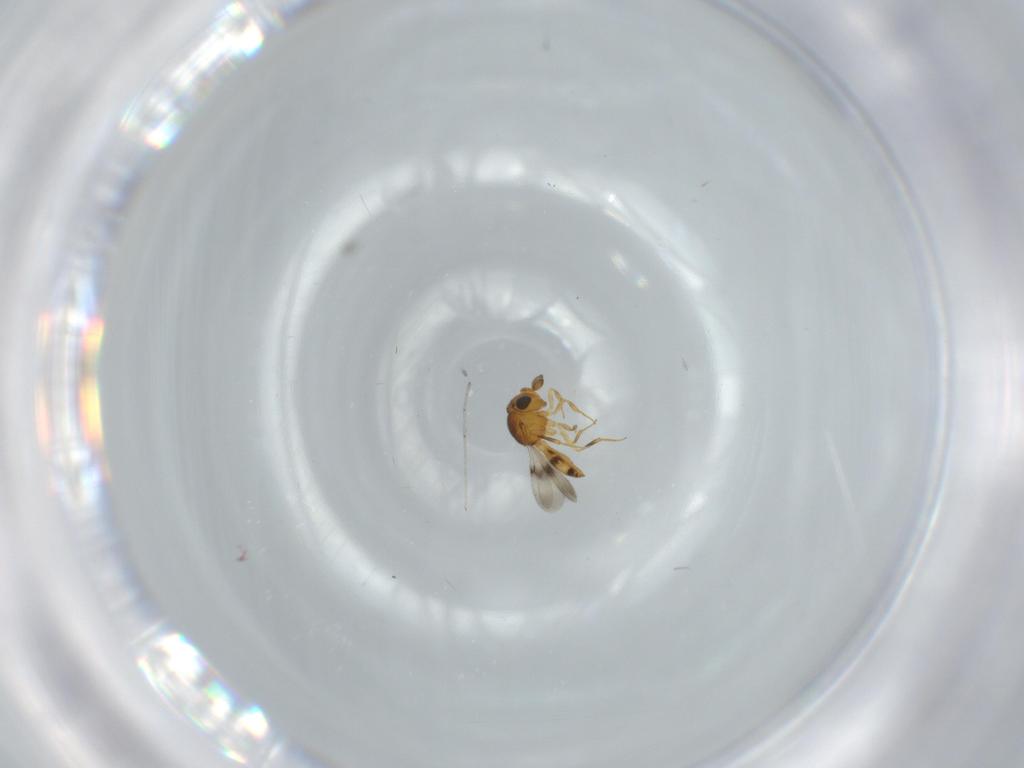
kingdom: Animalia
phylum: Arthropoda
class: Insecta
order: Hymenoptera
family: Scelionidae
